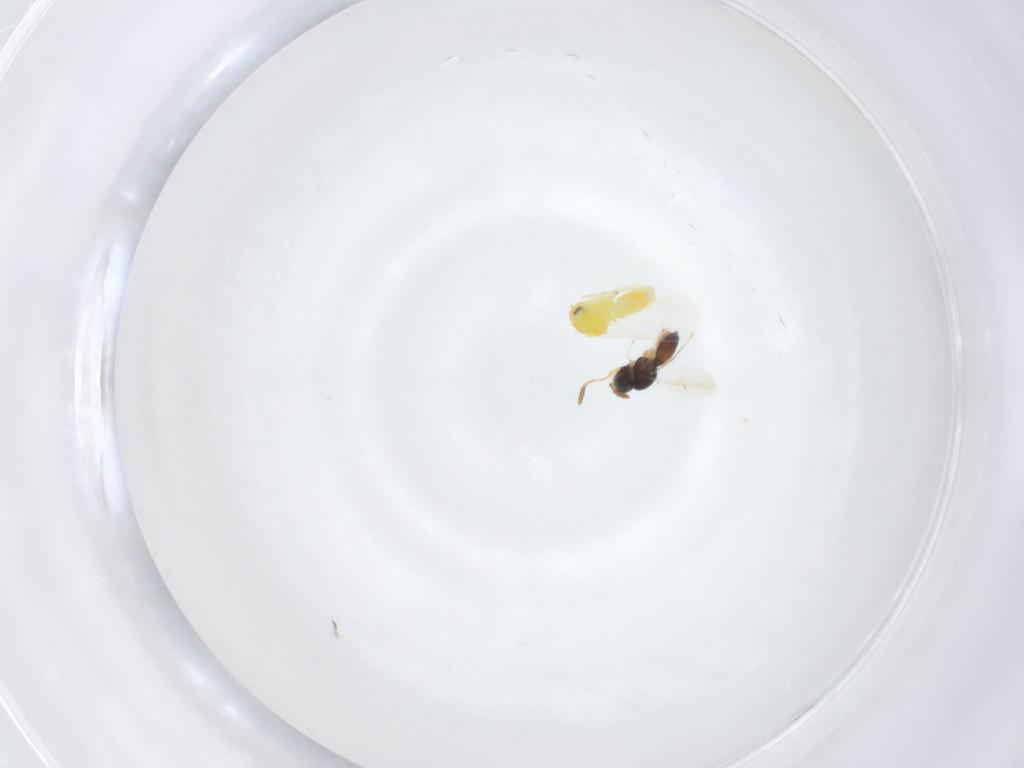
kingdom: Animalia
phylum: Arthropoda
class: Insecta
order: Hymenoptera
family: Scelionidae
